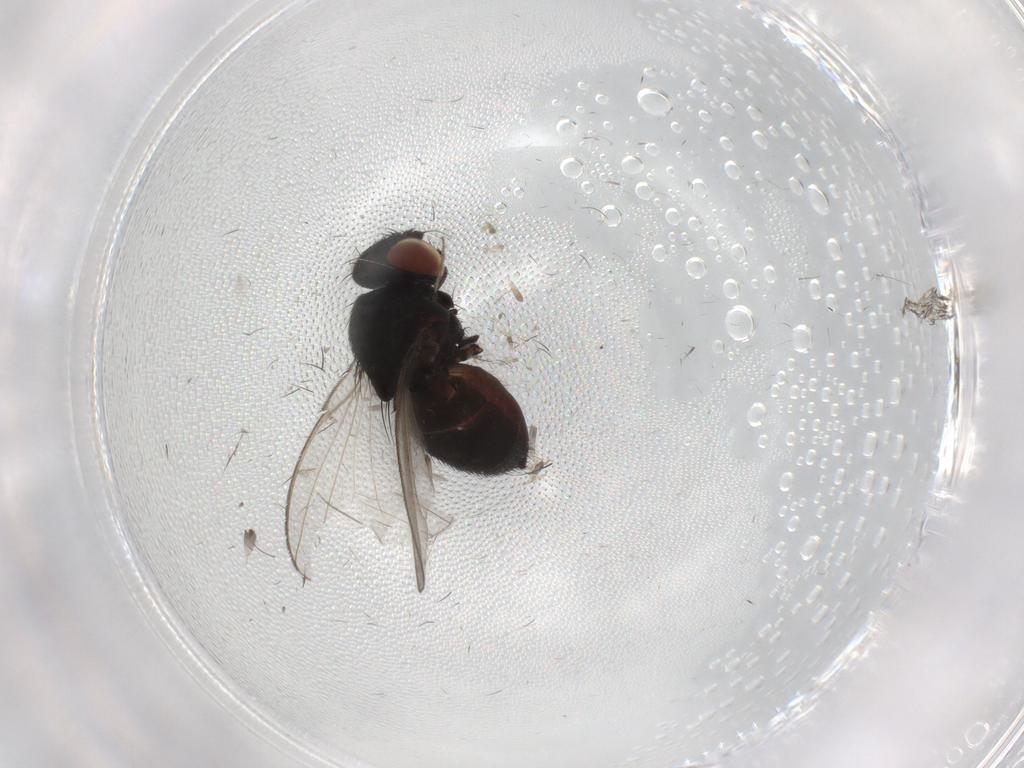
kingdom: Animalia
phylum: Arthropoda
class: Insecta
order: Diptera
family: Milichiidae
